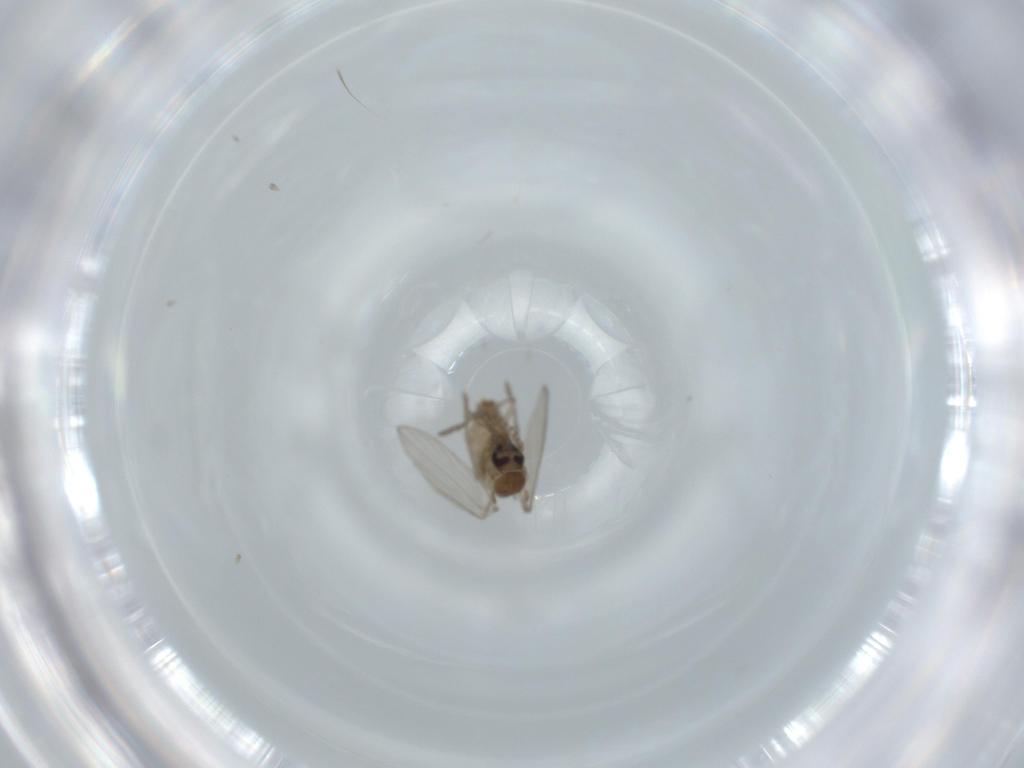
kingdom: Animalia
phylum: Arthropoda
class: Insecta
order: Diptera
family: Psychodidae
